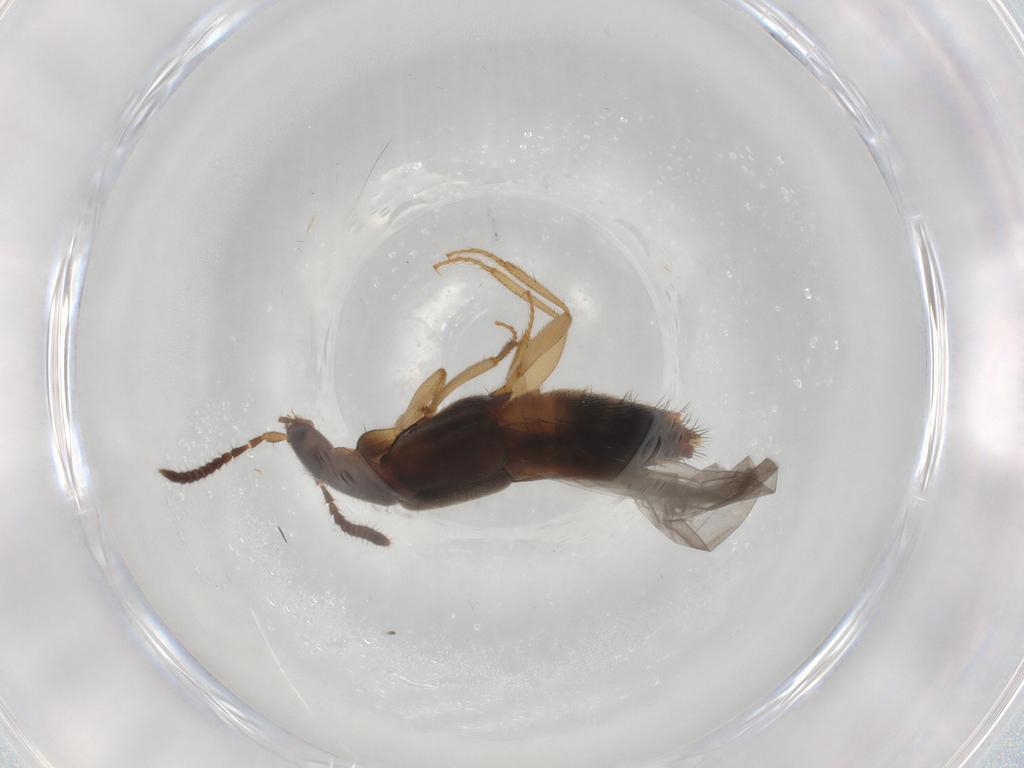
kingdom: Animalia
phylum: Arthropoda
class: Insecta
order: Coleoptera
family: Staphylinidae
